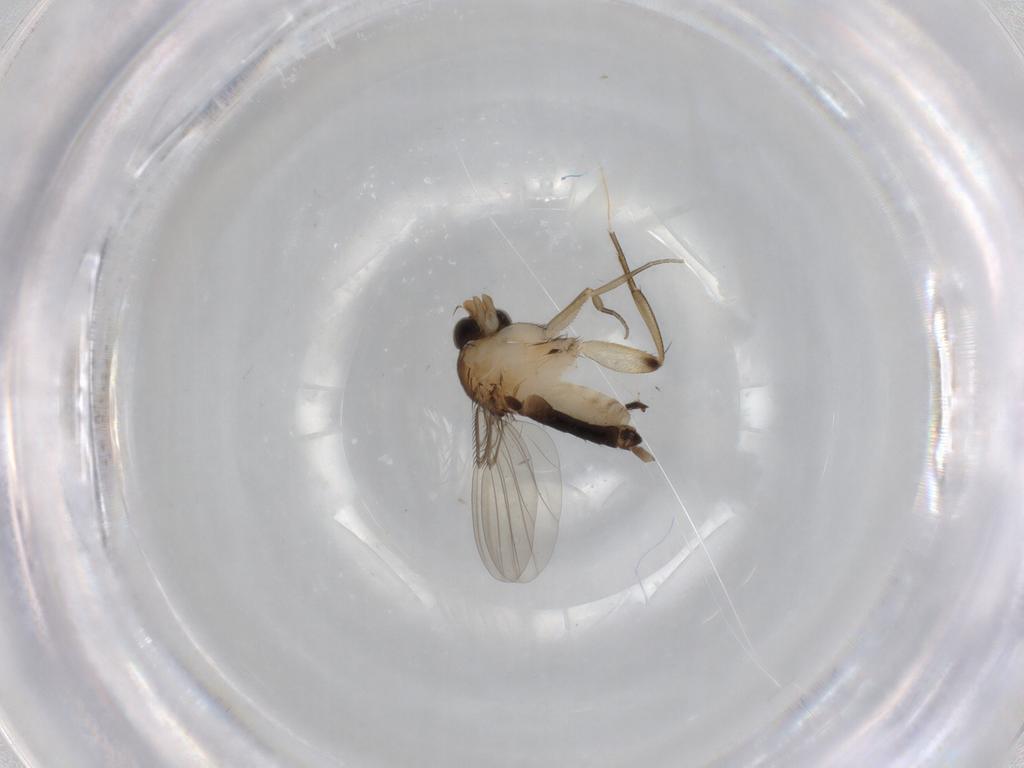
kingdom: Animalia
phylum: Arthropoda
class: Insecta
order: Diptera
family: Phoridae
